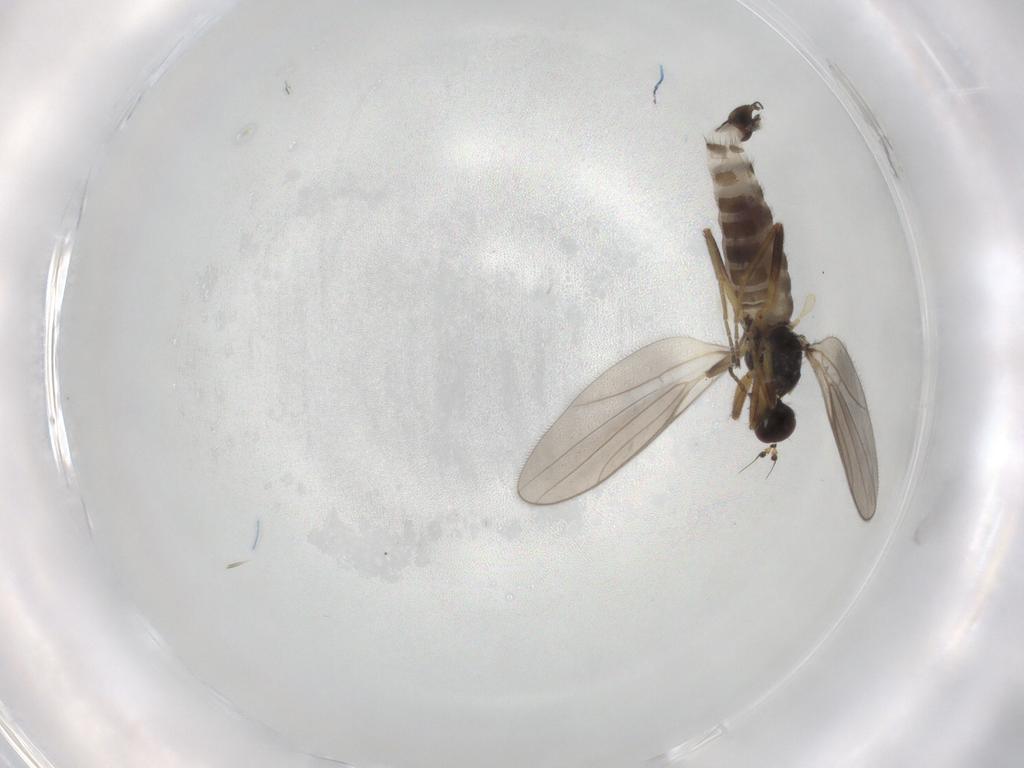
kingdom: Animalia
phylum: Arthropoda
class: Insecta
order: Diptera
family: Hybotidae
